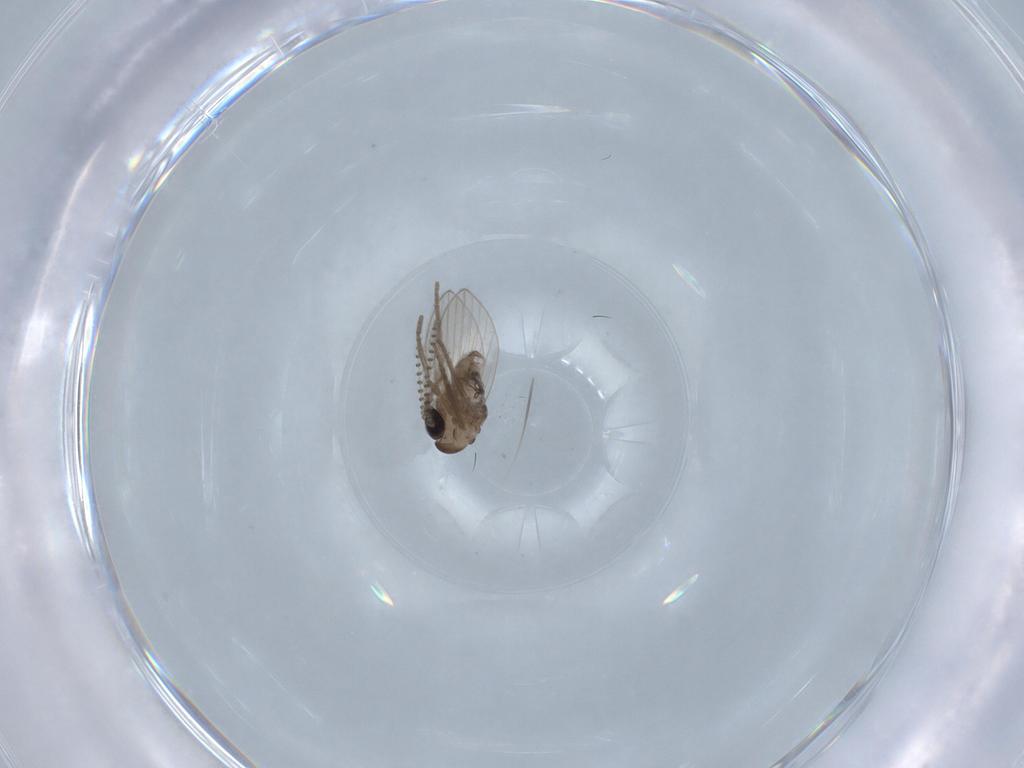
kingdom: Animalia
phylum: Arthropoda
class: Insecta
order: Diptera
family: Psychodidae
